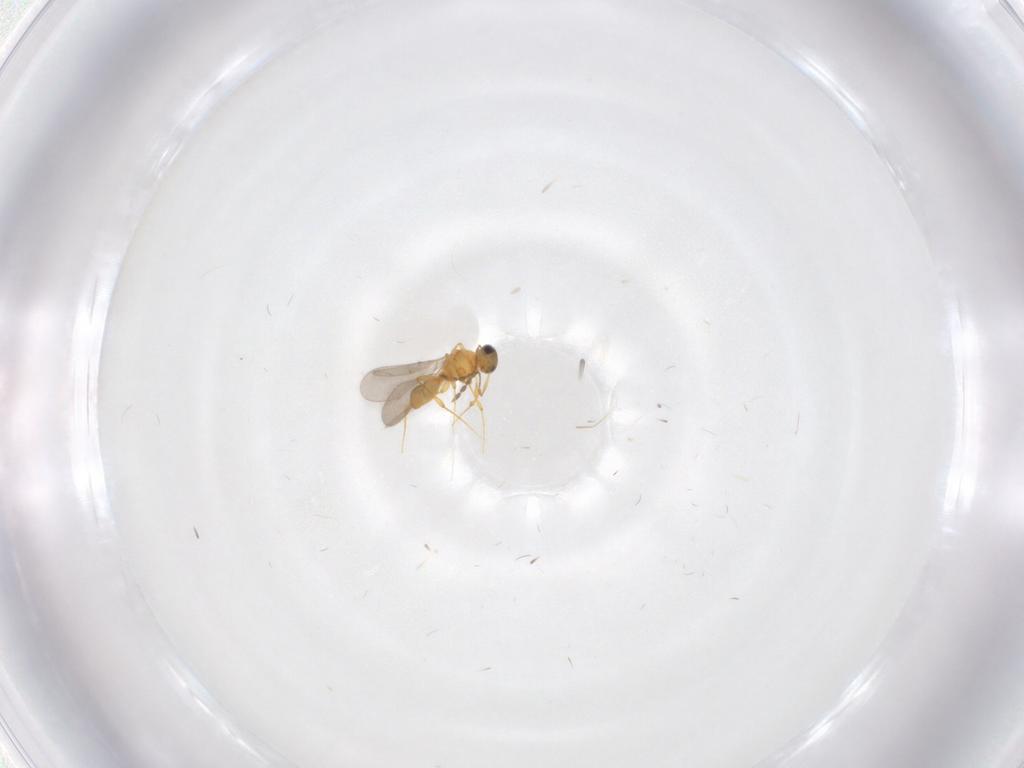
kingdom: Animalia
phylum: Arthropoda
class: Insecta
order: Hymenoptera
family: Platygastridae
